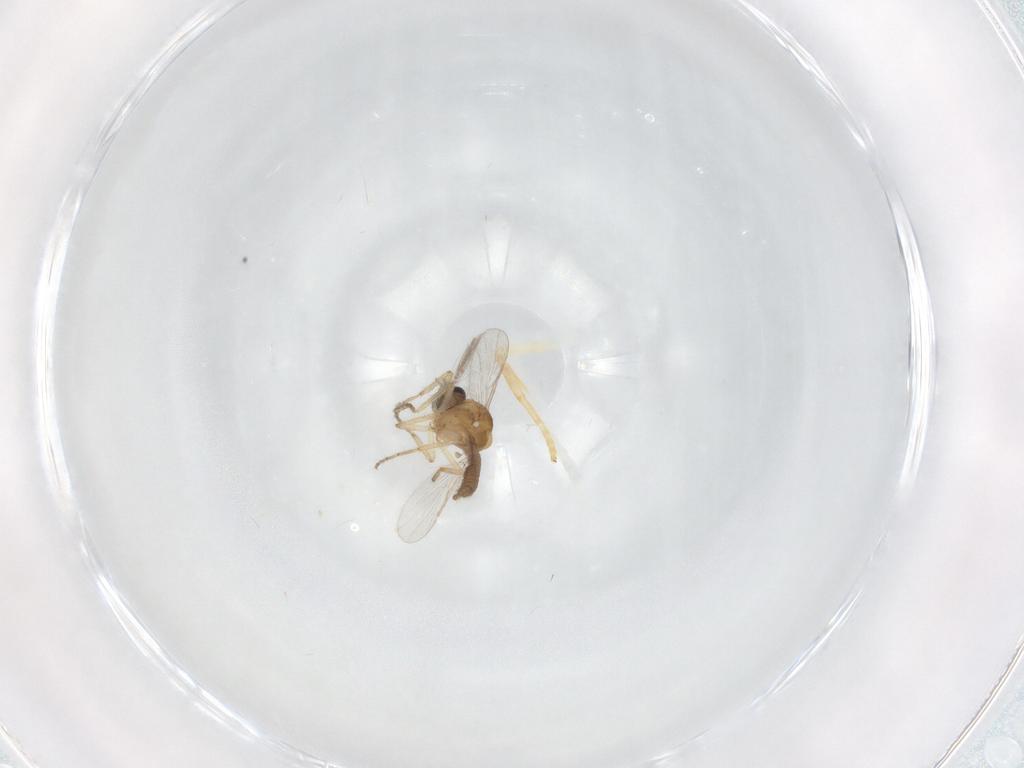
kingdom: Animalia
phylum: Arthropoda
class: Insecta
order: Diptera
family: Ceratopogonidae
